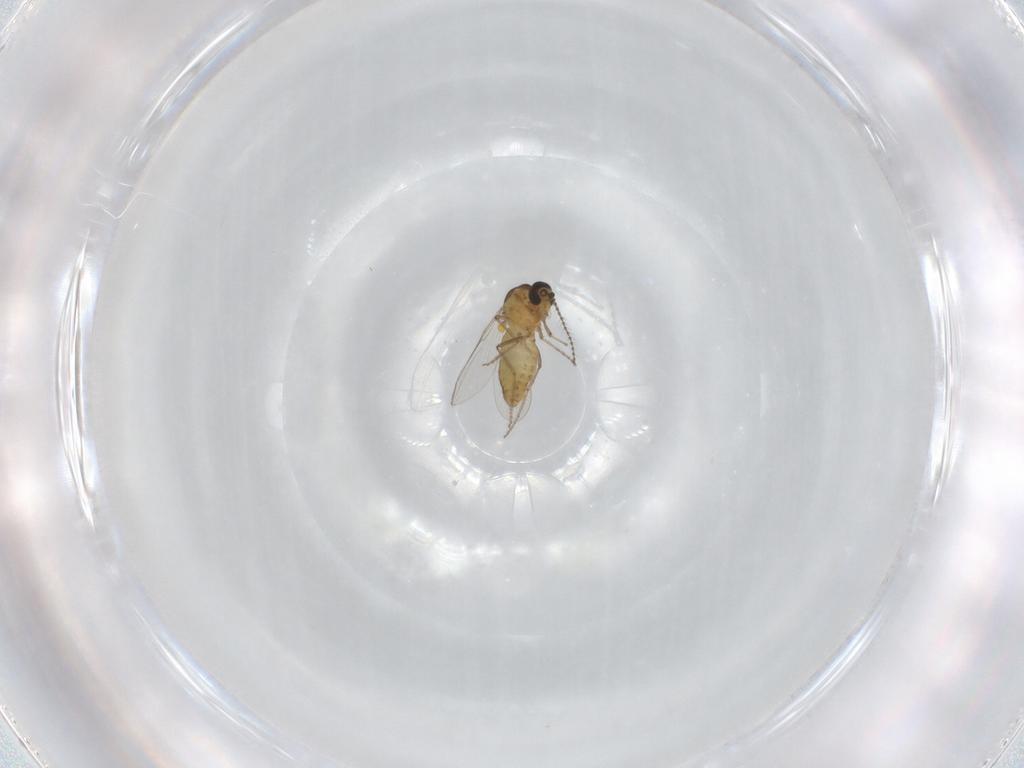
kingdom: Animalia
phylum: Arthropoda
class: Insecta
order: Diptera
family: Ceratopogonidae
